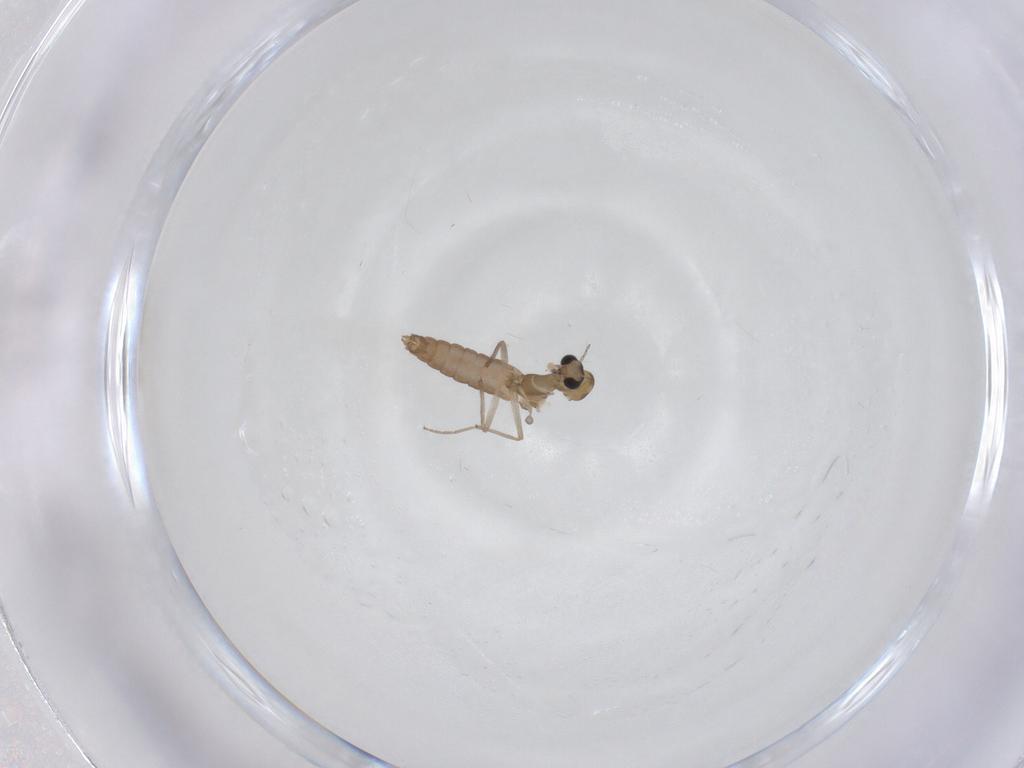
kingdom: Animalia
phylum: Arthropoda
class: Insecta
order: Diptera
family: Chironomidae
